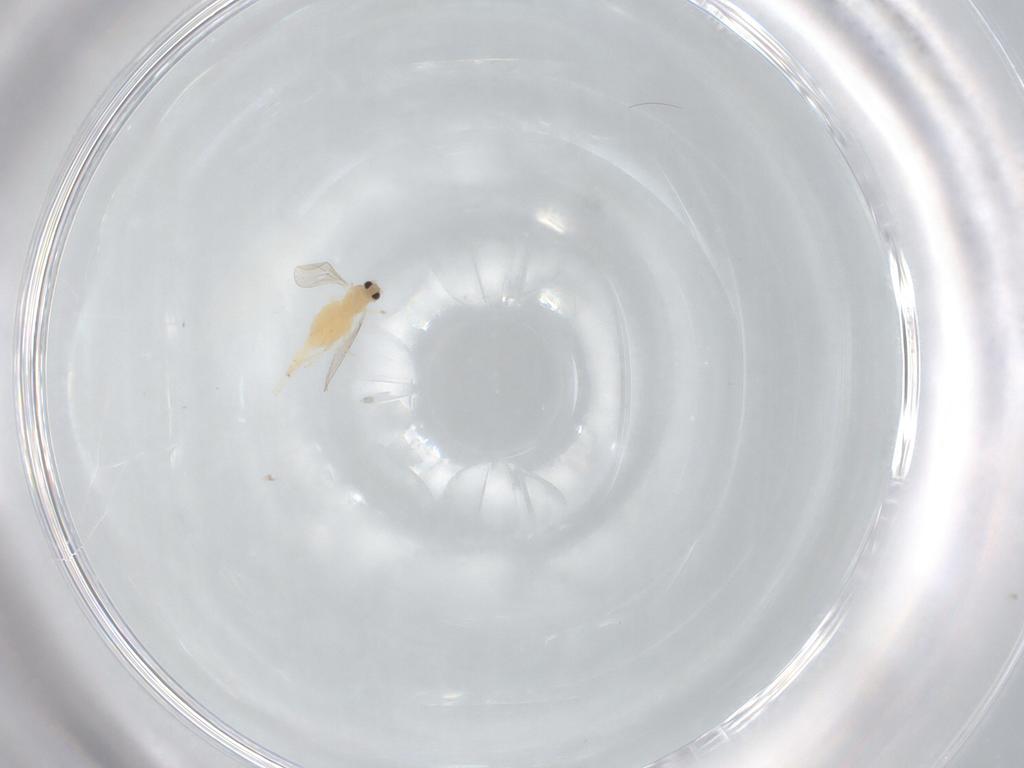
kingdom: Animalia
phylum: Arthropoda
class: Insecta
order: Diptera
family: Cecidomyiidae
